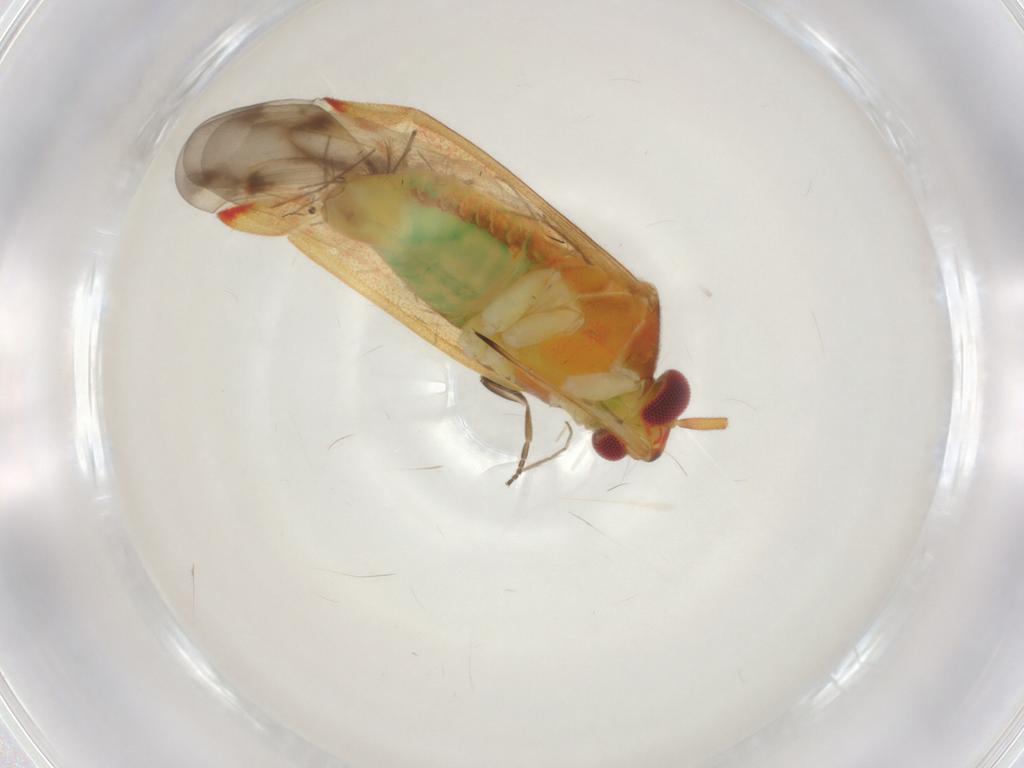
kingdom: Animalia
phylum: Arthropoda
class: Insecta
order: Hemiptera
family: Miridae
